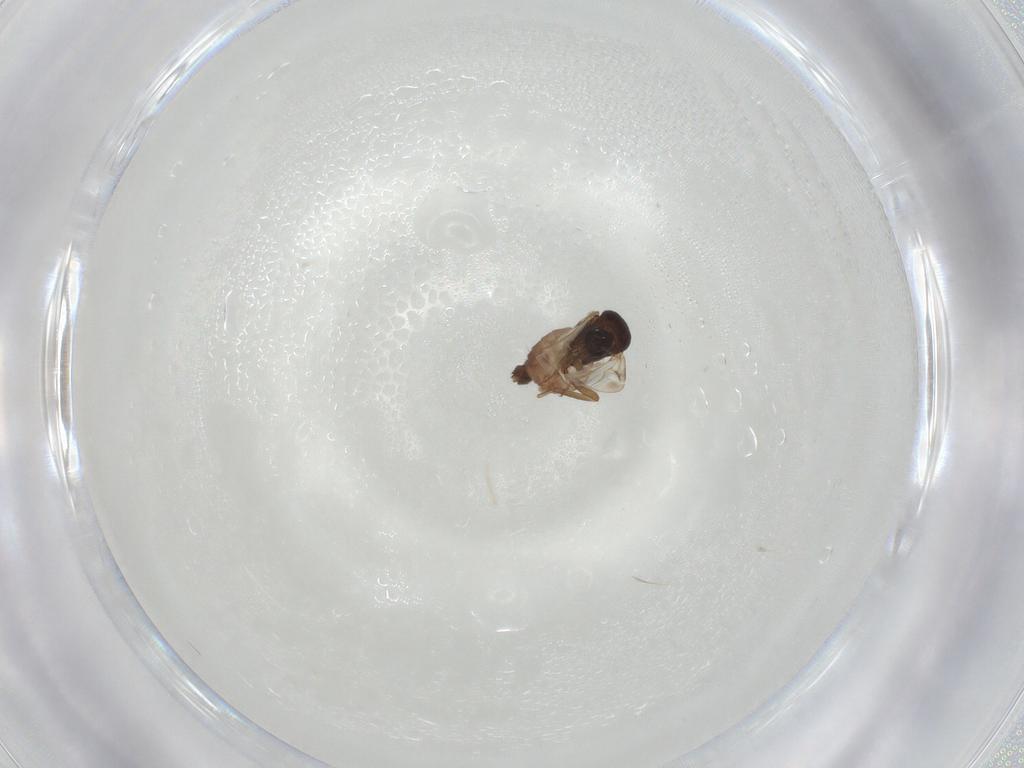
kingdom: Animalia
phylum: Arthropoda
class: Insecta
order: Diptera
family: Ceratopogonidae
